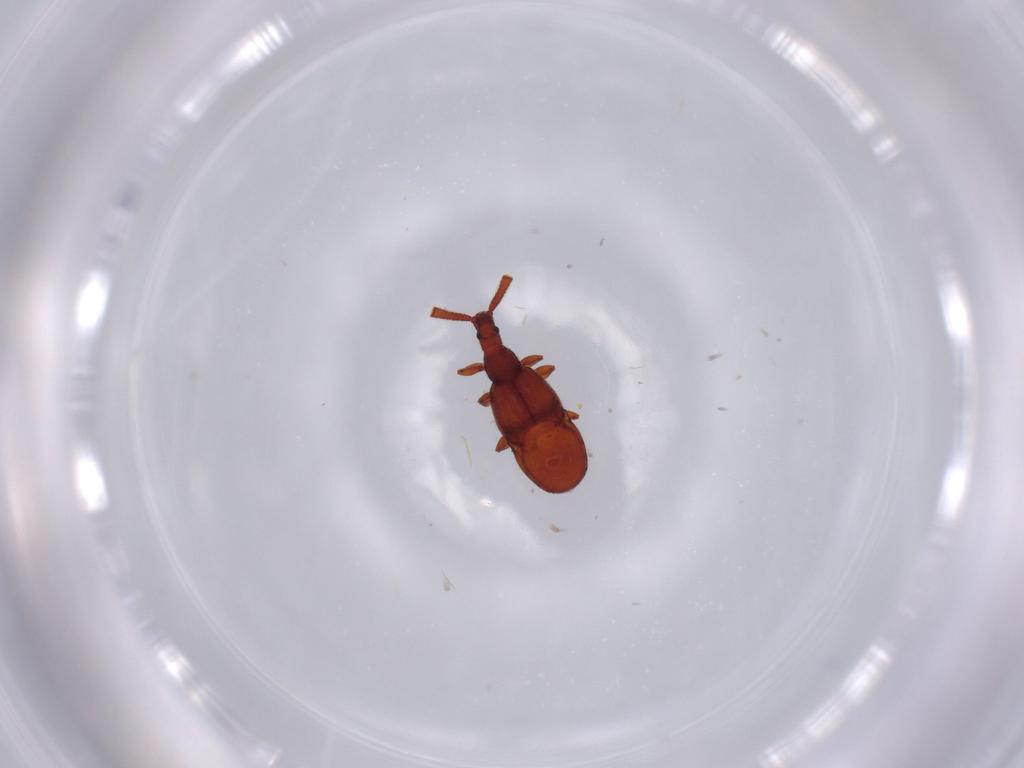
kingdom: Animalia
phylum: Arthropoda
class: Insecta
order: Coleoptera
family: Staphylinidae
